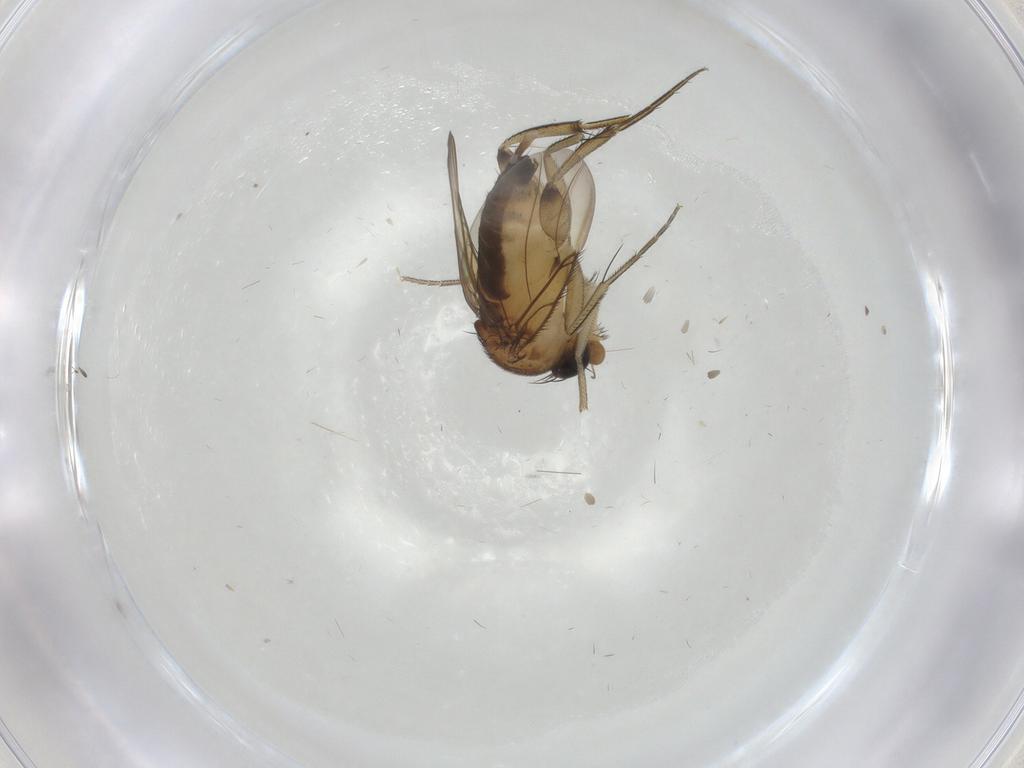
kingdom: Animalia
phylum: Arthropoda
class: Insecta
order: Diptera
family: Phoridae
